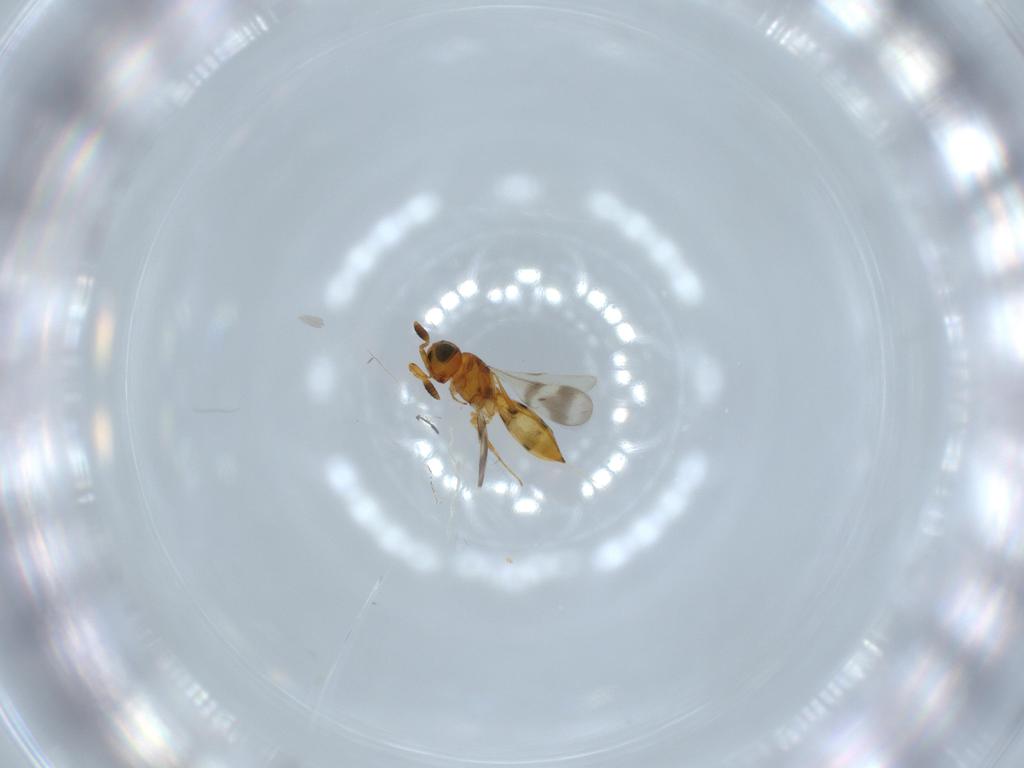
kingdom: Animalia
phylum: Arthropoda
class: Insecta
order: Hymenoptera
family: Scelionidae
